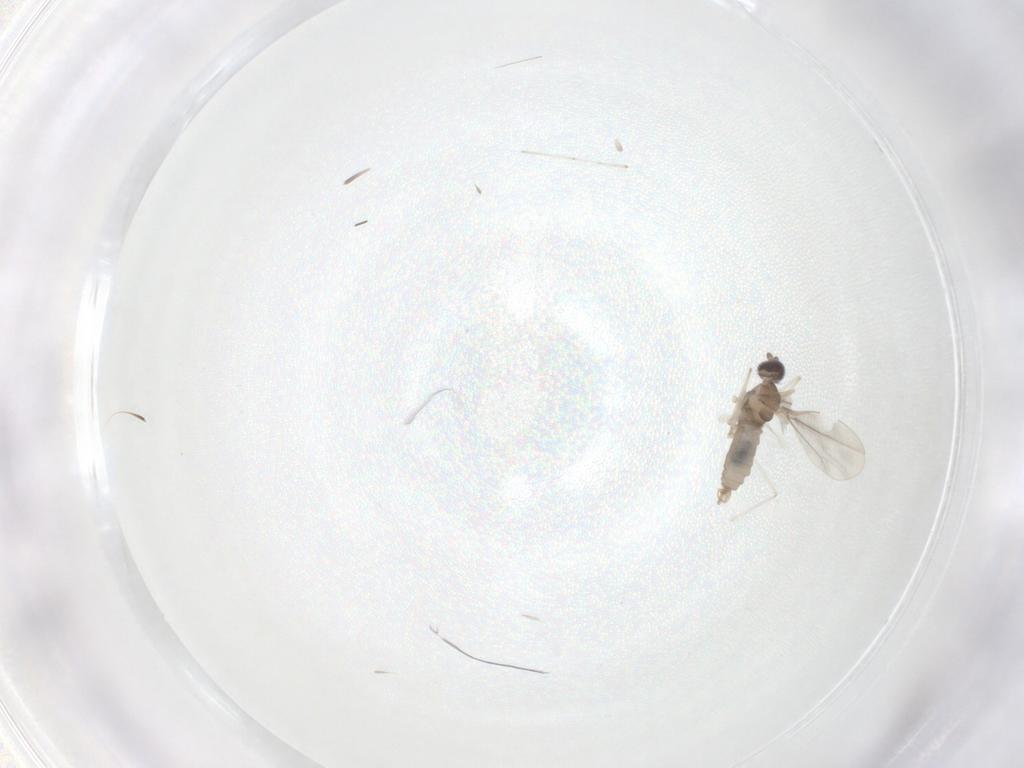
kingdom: Animalia
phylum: Arthropoda
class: Insecta
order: Diptera
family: Cecidomyiidae
